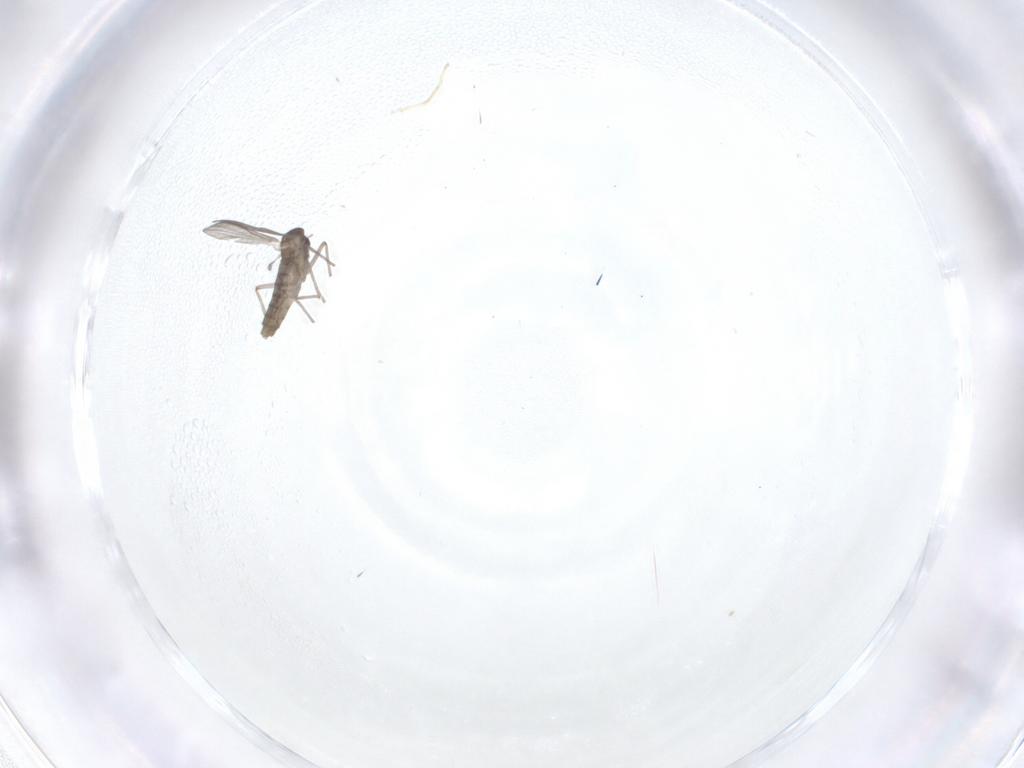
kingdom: Animalia
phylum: Arthropoda
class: Insecta
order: Diptera
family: Chironomidae
